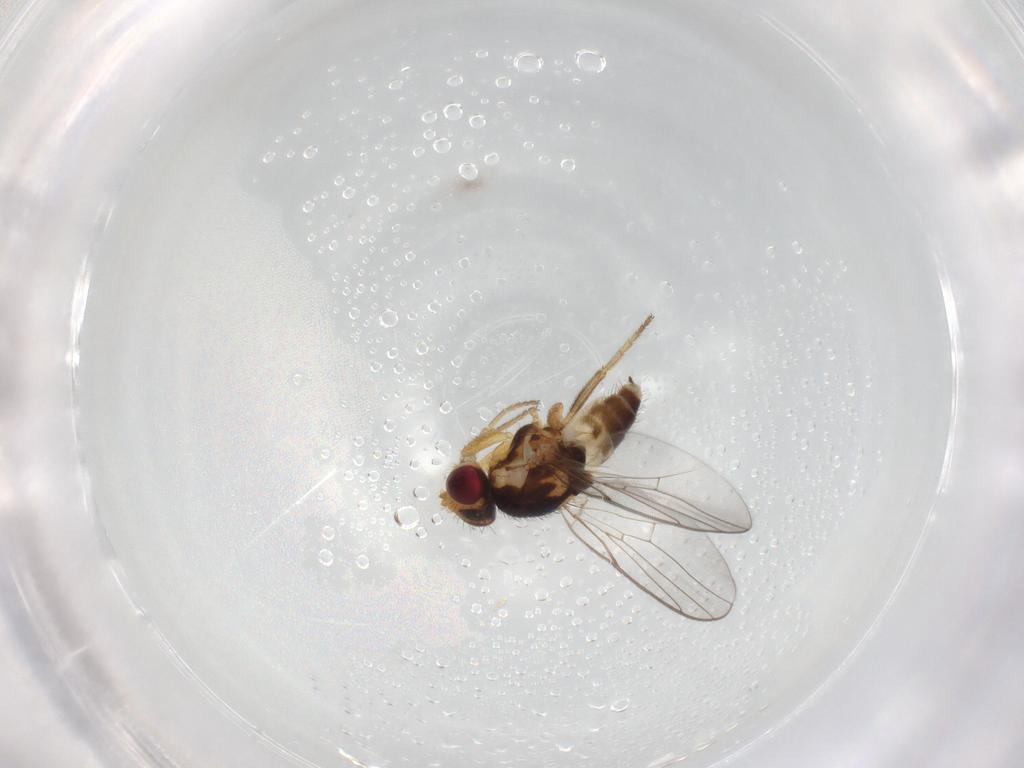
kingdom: Animalia
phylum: Arthropoda
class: Insecta
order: Diptera
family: Chloropidae
